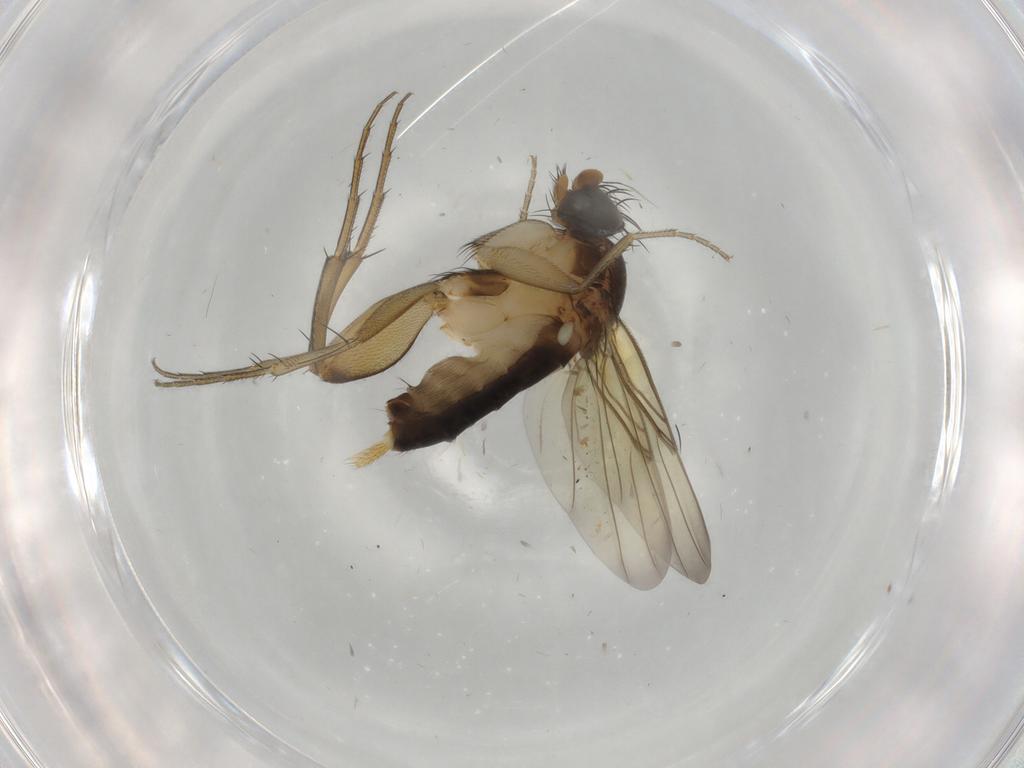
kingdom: Animalia
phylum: Arthropoda
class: Insecta
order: Diptera
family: Phoridae
